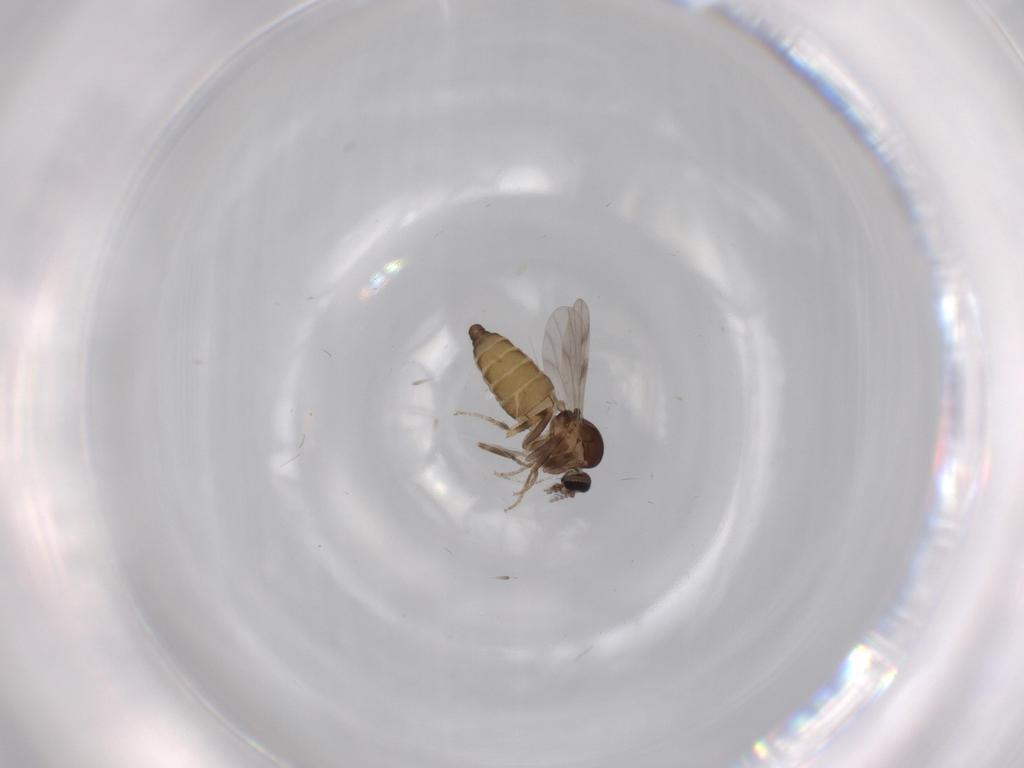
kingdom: Animalia
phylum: Arthropoda
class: Insecta
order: Diptera
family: Ceratopogonidae
